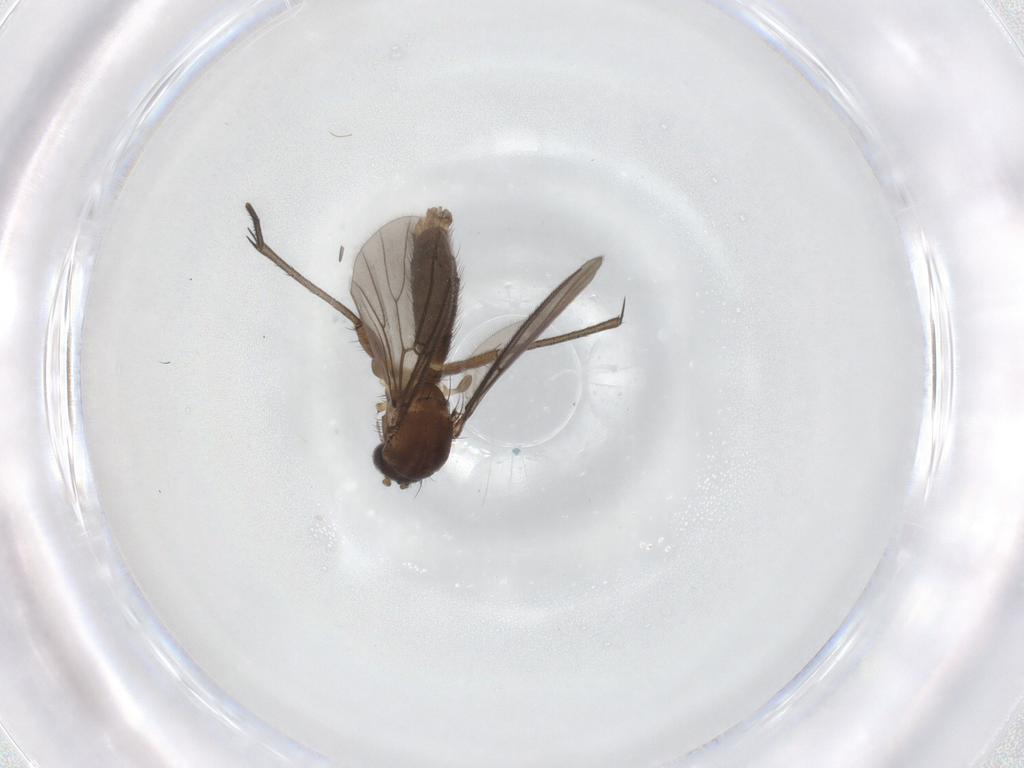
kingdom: Animalia
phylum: Arthropoda
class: Insecta
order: Diptera
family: Mycetophilidae
